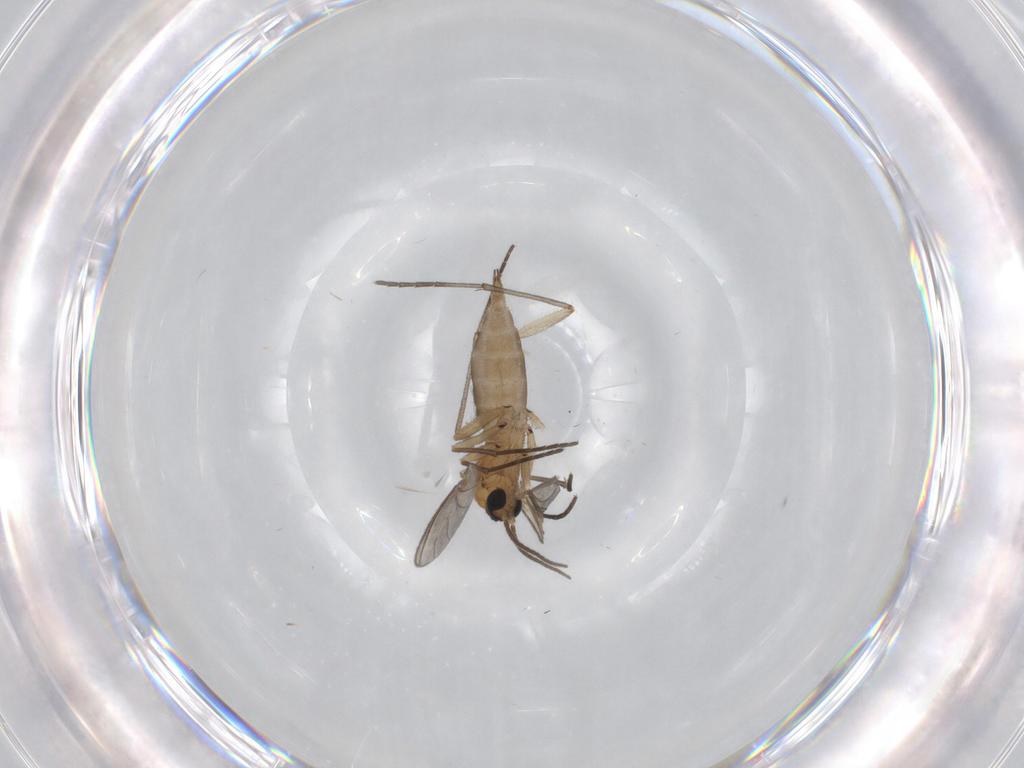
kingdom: Animalia
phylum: Arthropoda
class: Insecta
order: Diptera
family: Sciaridae
